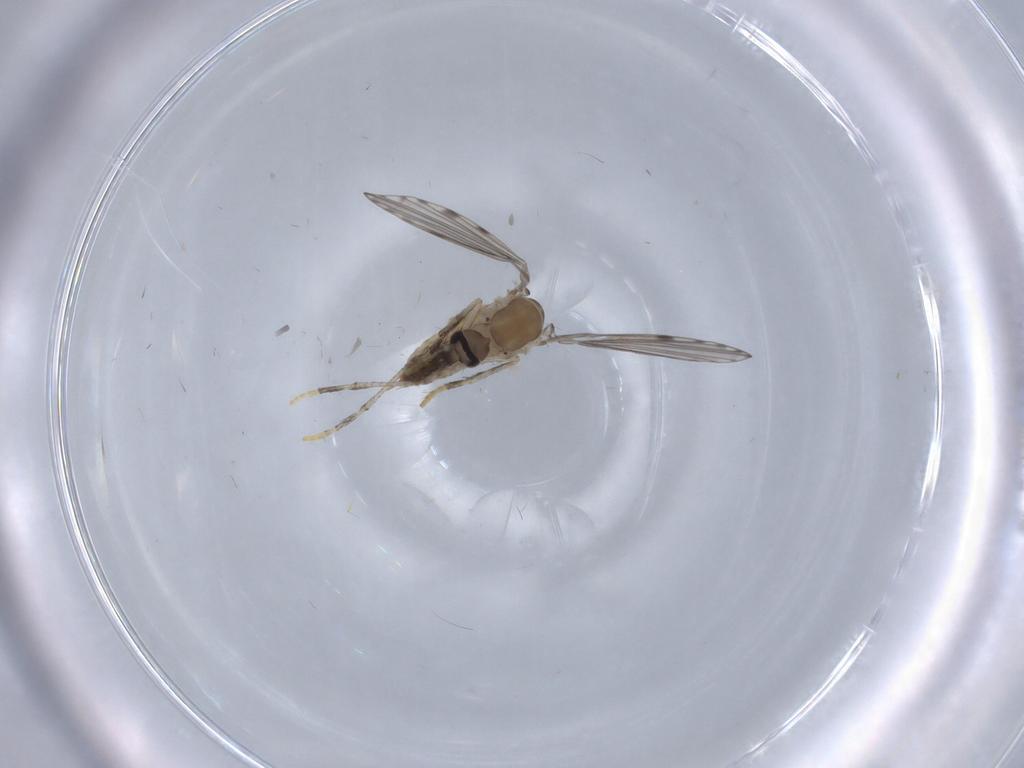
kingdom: Animalia
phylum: Arthropoda
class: Insecta
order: Diptera
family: Psychodidae
